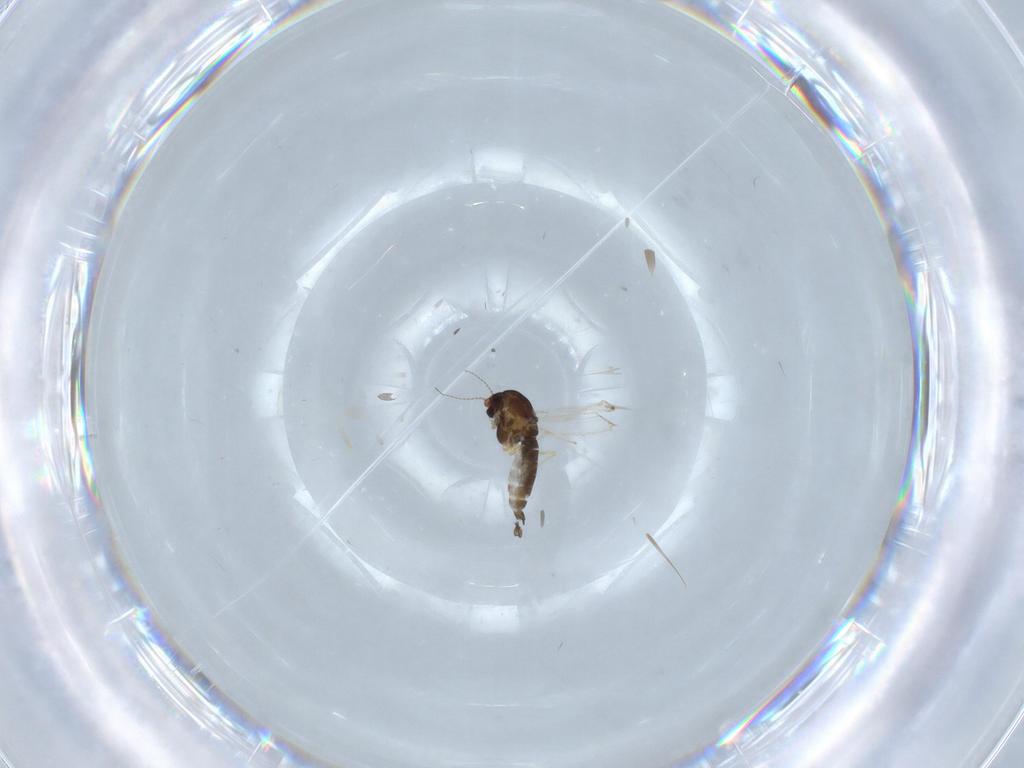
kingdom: Animalia
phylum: Arthropoda
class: Insecta
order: Diptera
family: Chironomidae
